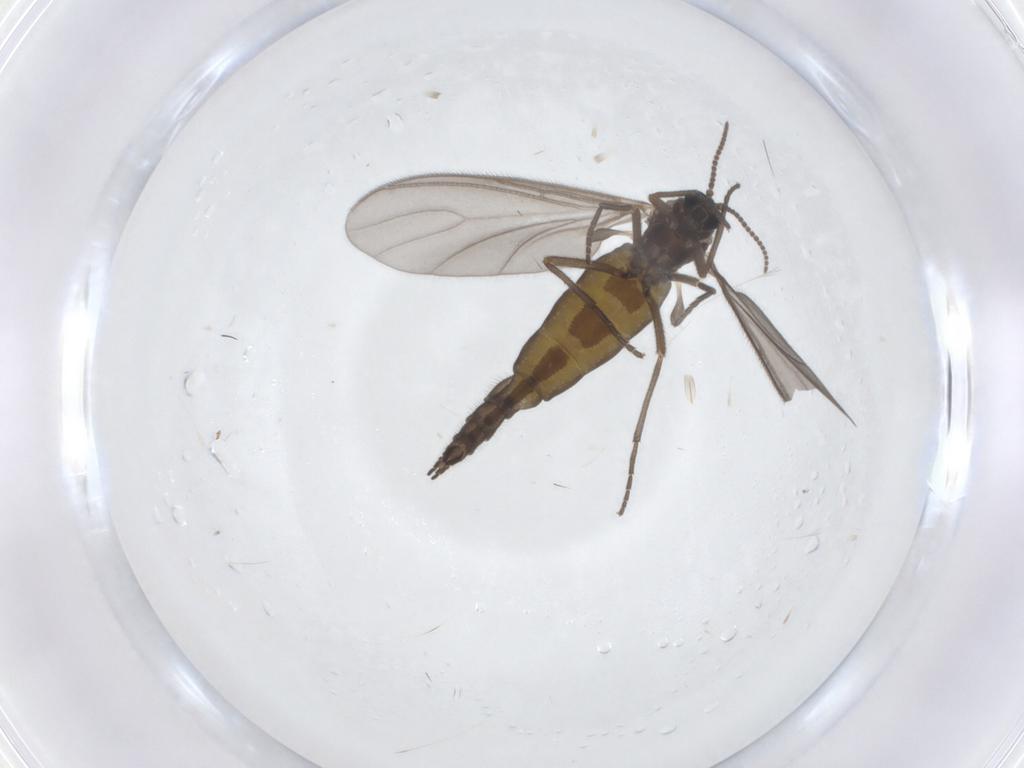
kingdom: Animalia
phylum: Arthropoda
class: Insecta
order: Diptera
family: Sciaridae
